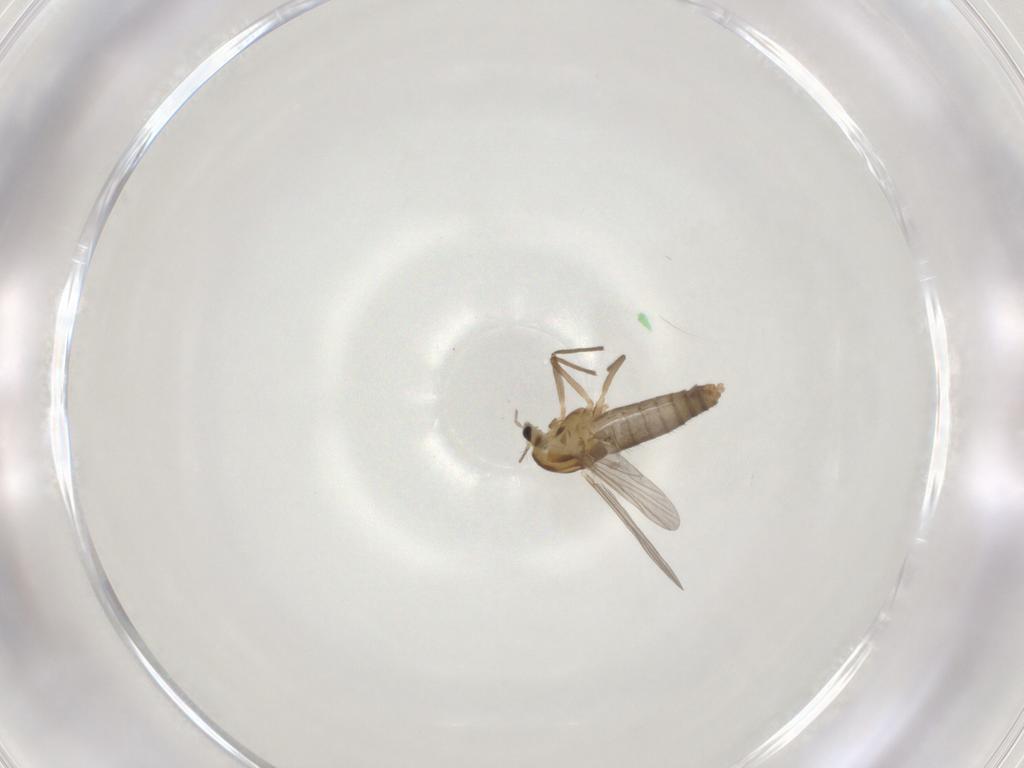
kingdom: Animalia
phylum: Arthropoda
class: Insecta
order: Diptera
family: Chironomidae
